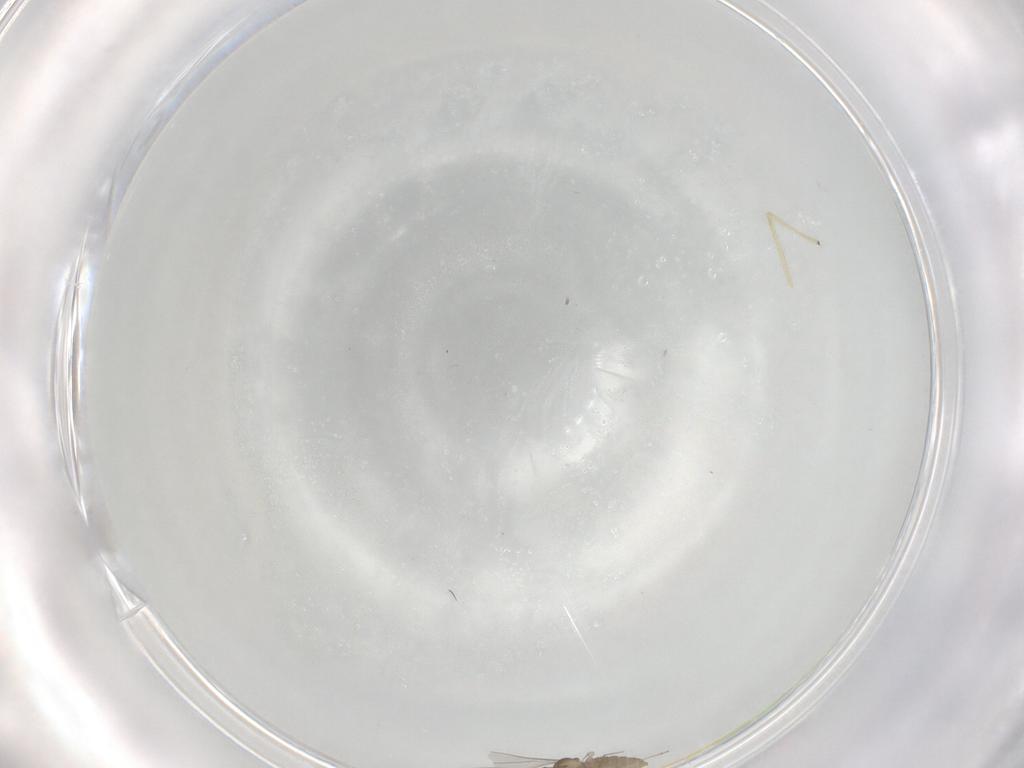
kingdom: Animalia
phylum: Arthropoda
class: Insecta
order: Diptera
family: Chironomidae
